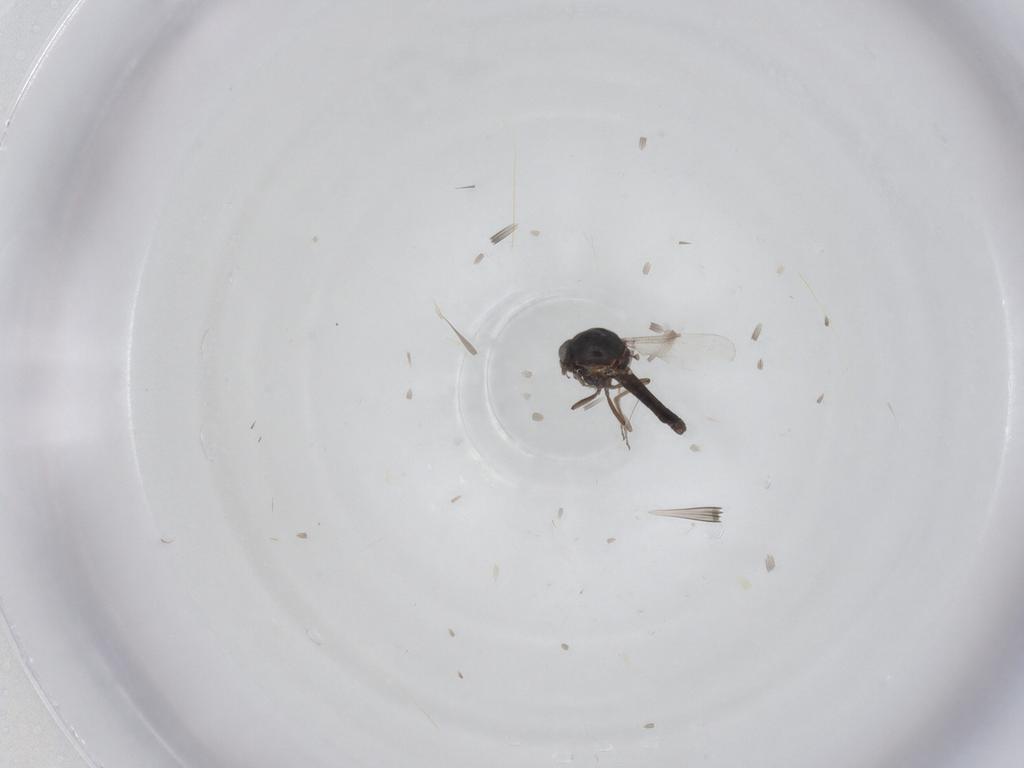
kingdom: Animalia
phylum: Arthropoda
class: Insecta
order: Diptera
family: Ceratopogonidae
